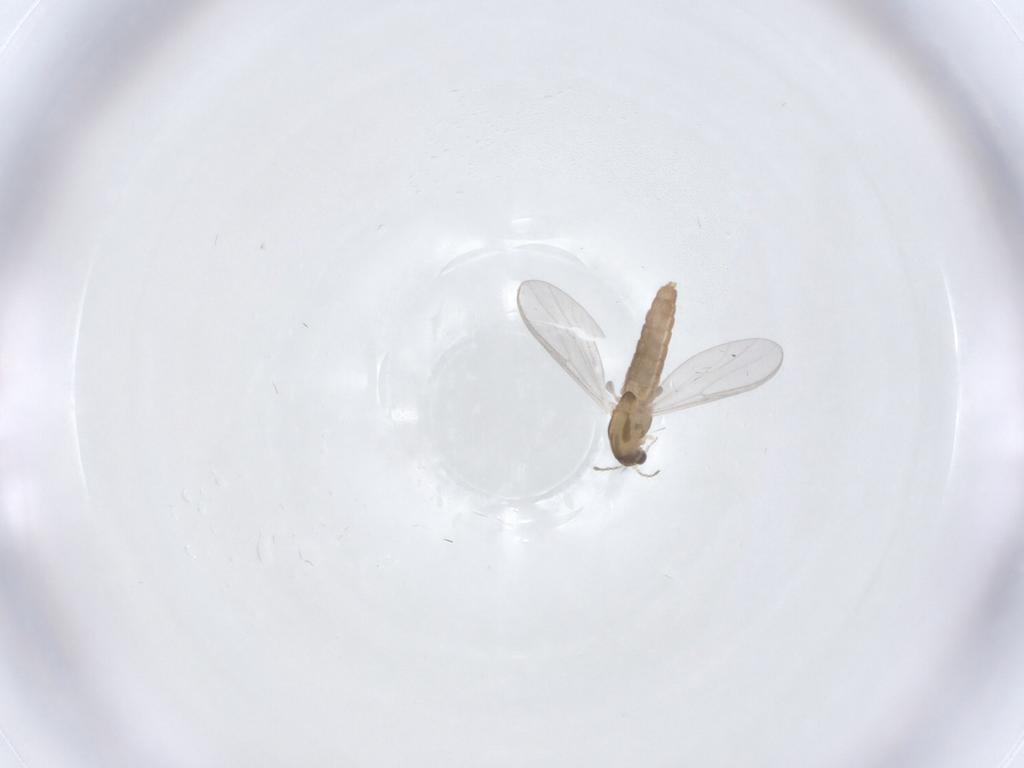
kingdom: Animalia
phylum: Arthropoda
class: Insecta
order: Diptera
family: Chironomidae
